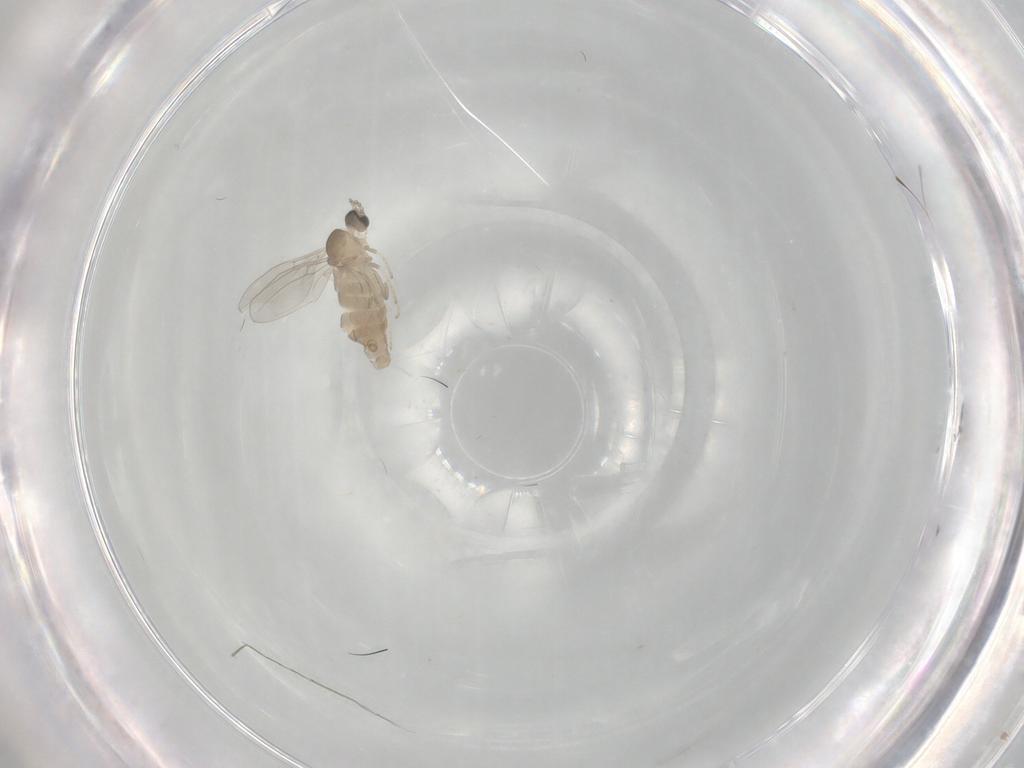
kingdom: Animalia
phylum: Arthropoda
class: Insecta
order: Diptera
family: Cecidomyiidae
